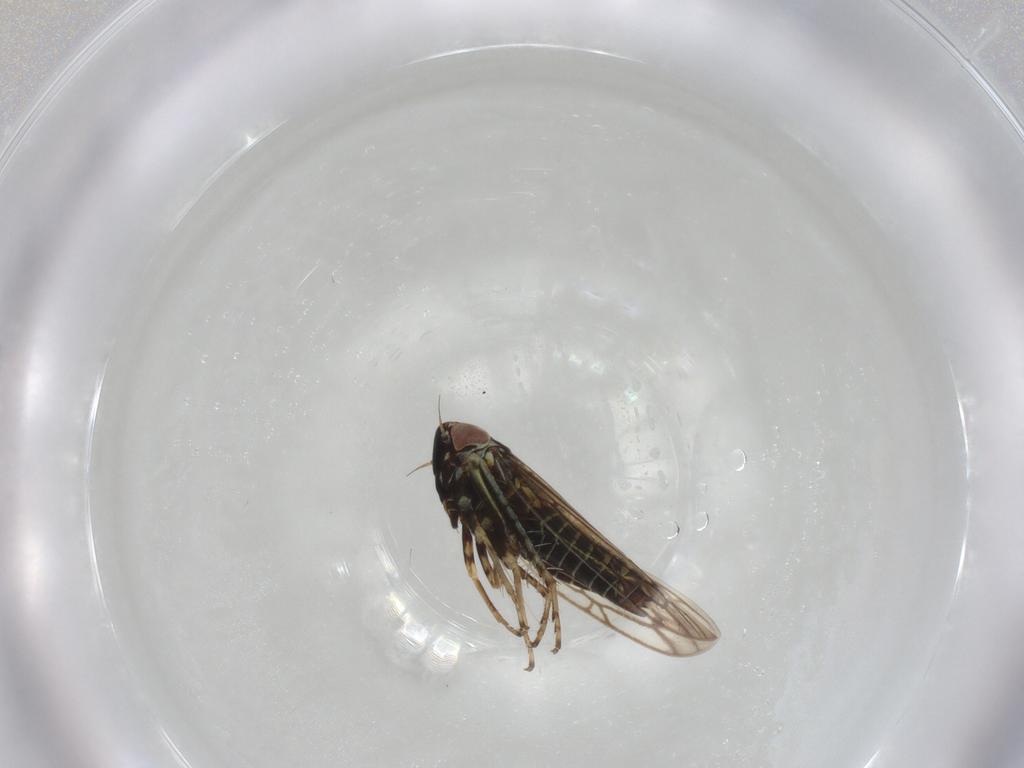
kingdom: Animalia
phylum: Arthropoda
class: Insecta
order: Hemiptera
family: Cicadellidae
